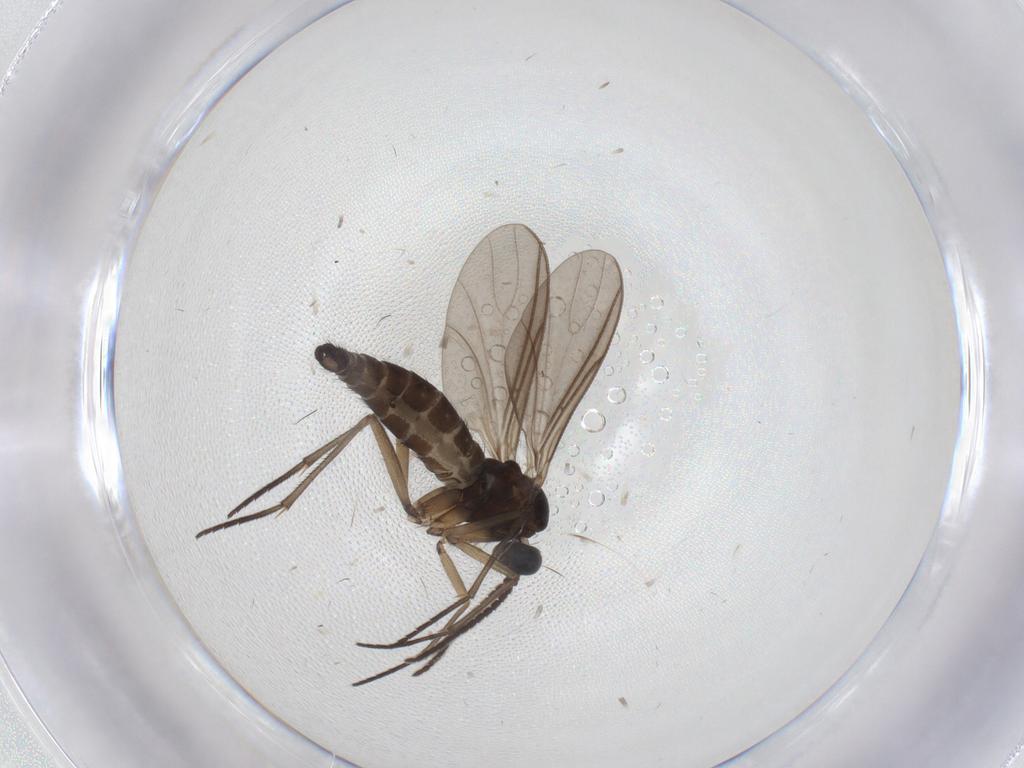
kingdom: Animalia
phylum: Arthropoda
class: Insecta
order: Diptera
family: Sciaridae
